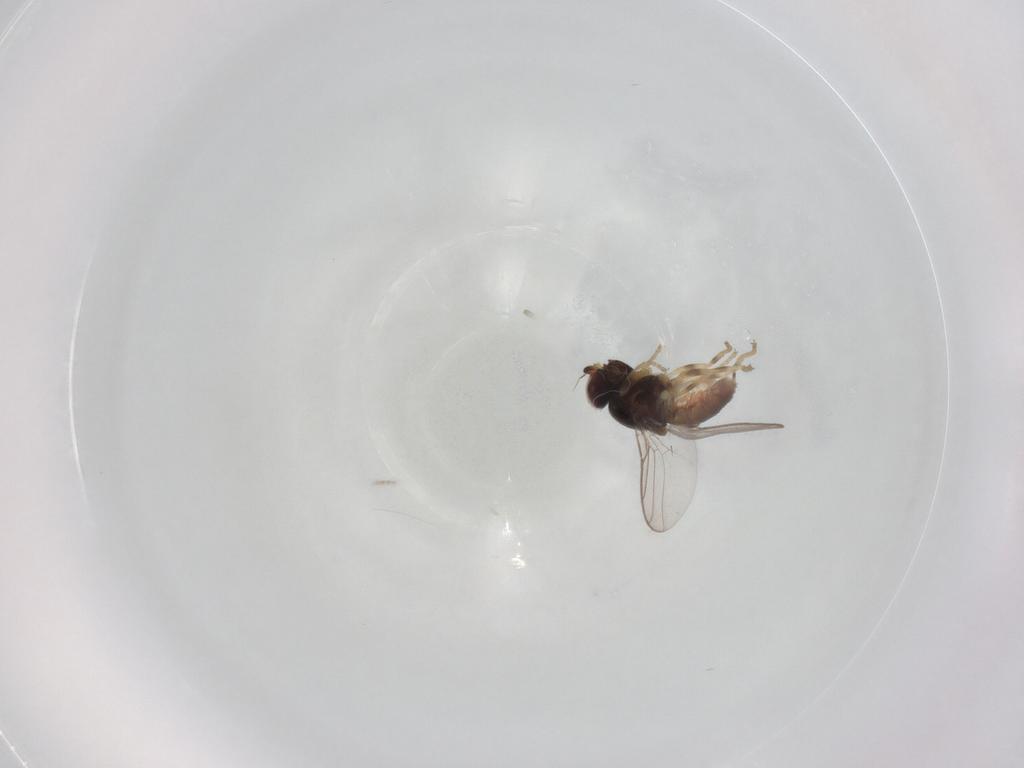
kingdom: Animalia
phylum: Arthropoda
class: Insecta
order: Diptera
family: Chloropidae
